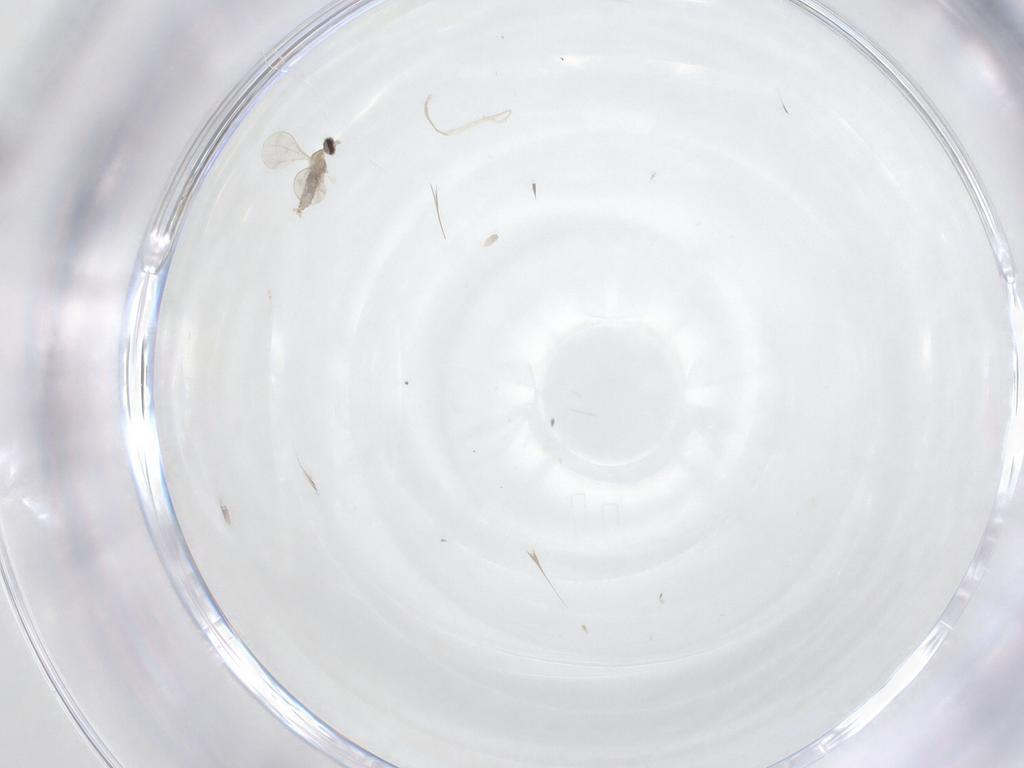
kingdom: Animalia
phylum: Arthropoda
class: Insecta
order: Diptera
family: Cecidomyiidae
